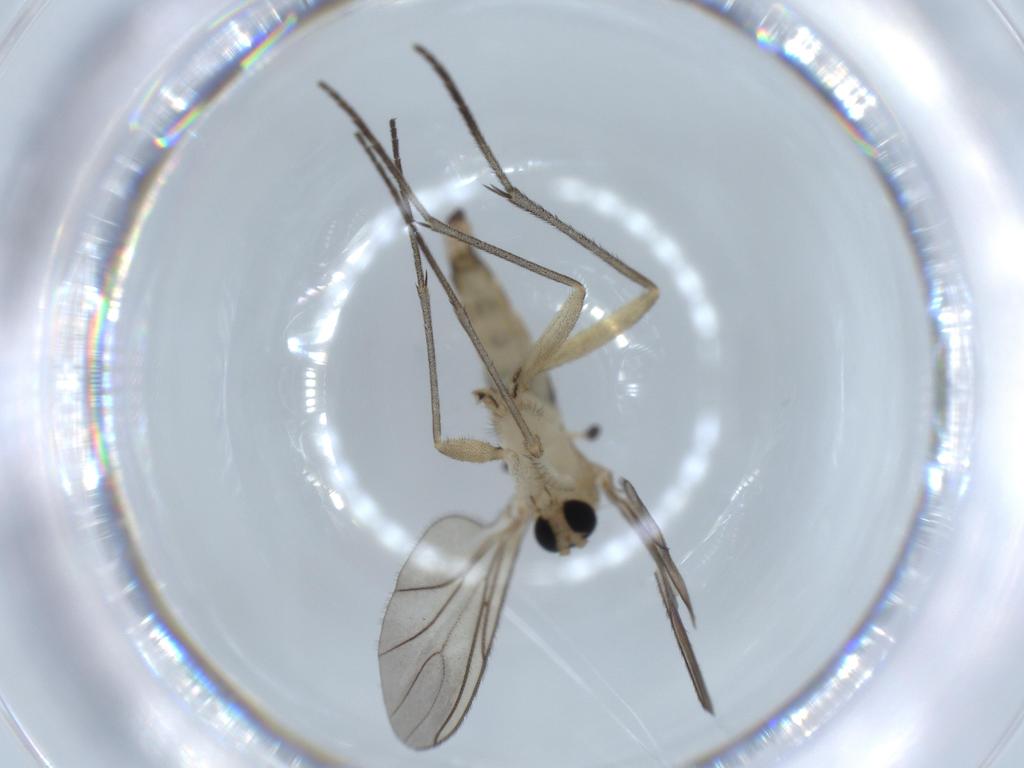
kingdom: Animalia
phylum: Arthropoda
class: Insecta
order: Diptera
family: Sciaridae
